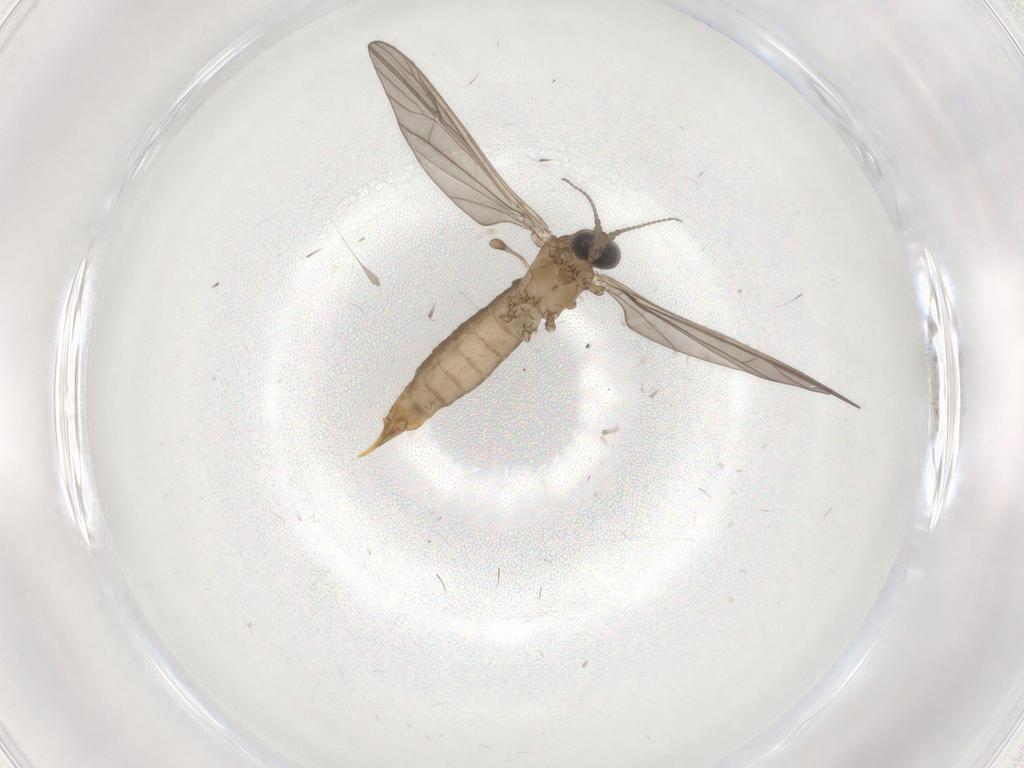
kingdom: Animalia
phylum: Arthropoda
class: Insecta
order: Diptera
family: Limoniidae
